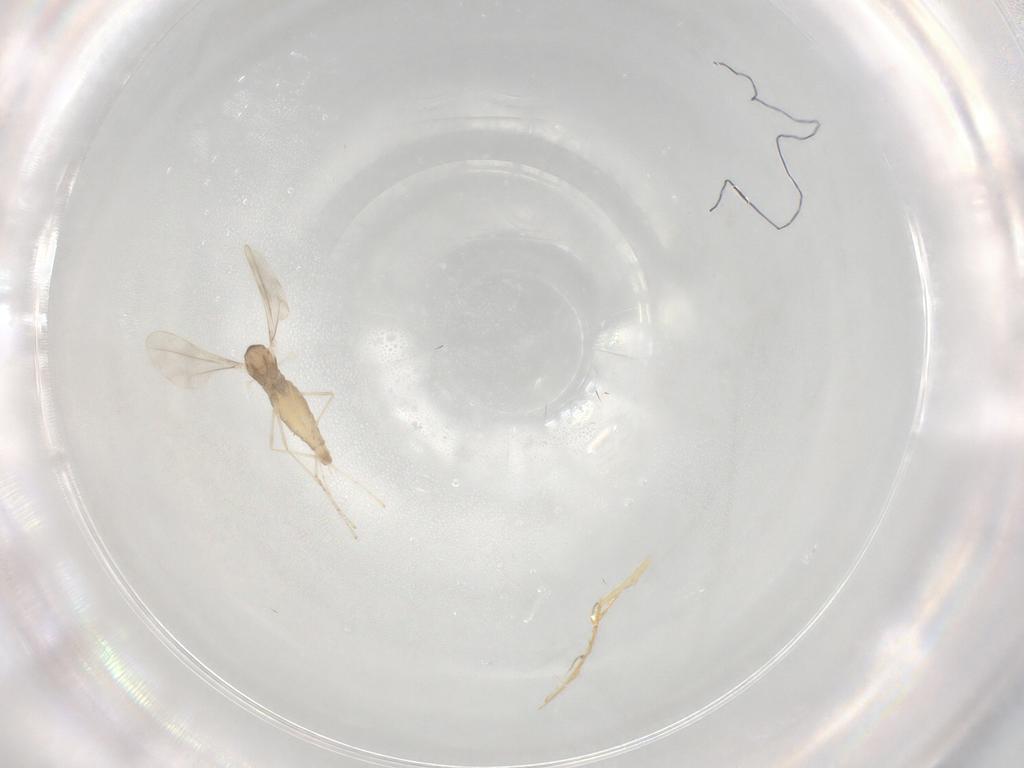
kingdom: Animalia
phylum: Arthropoda
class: Insecta
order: Diptera
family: Cecidomyiidae
